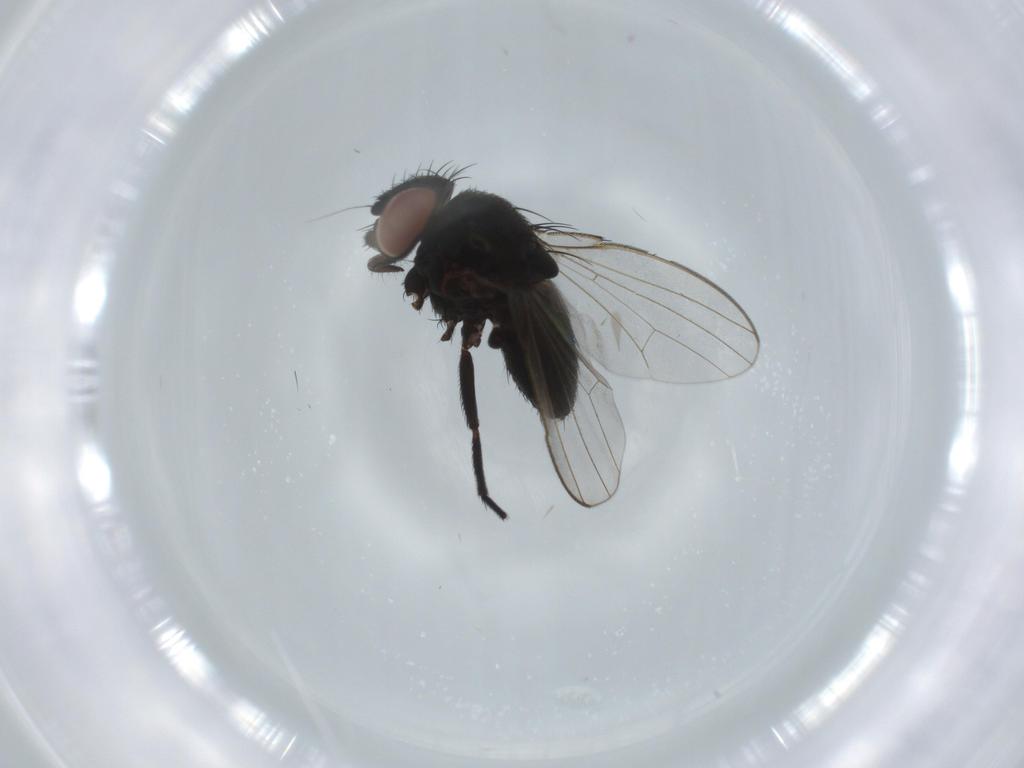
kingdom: Animalia
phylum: Arthropoda
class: Insecta
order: Diptera
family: Milichiidae
